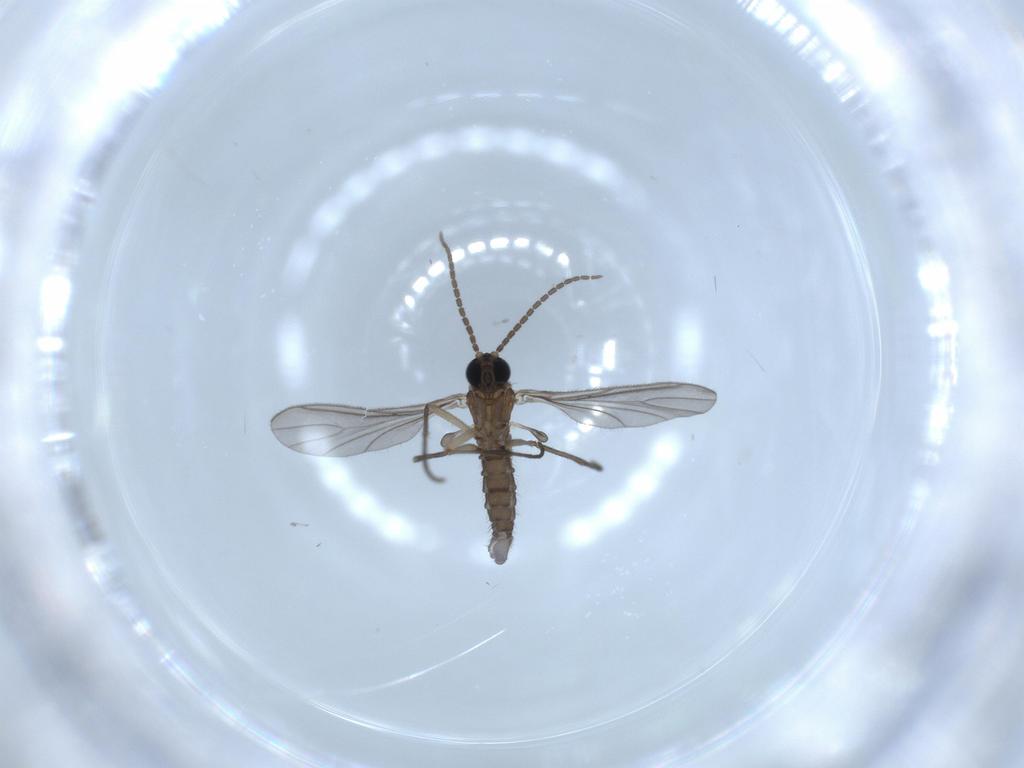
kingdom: Animalia
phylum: Arthropoda
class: Insecta
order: Diptera
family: Sciaridae
